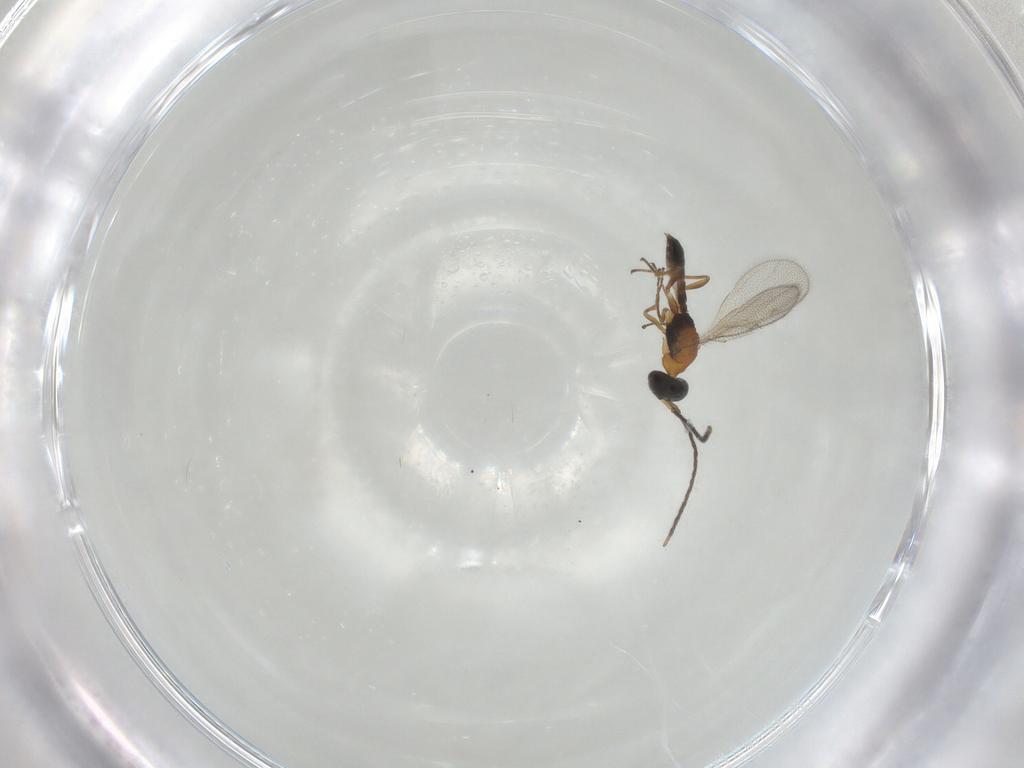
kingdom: Animalia
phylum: Arthropoda
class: Insecta
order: Hymenoptera
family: Pteromalidae
